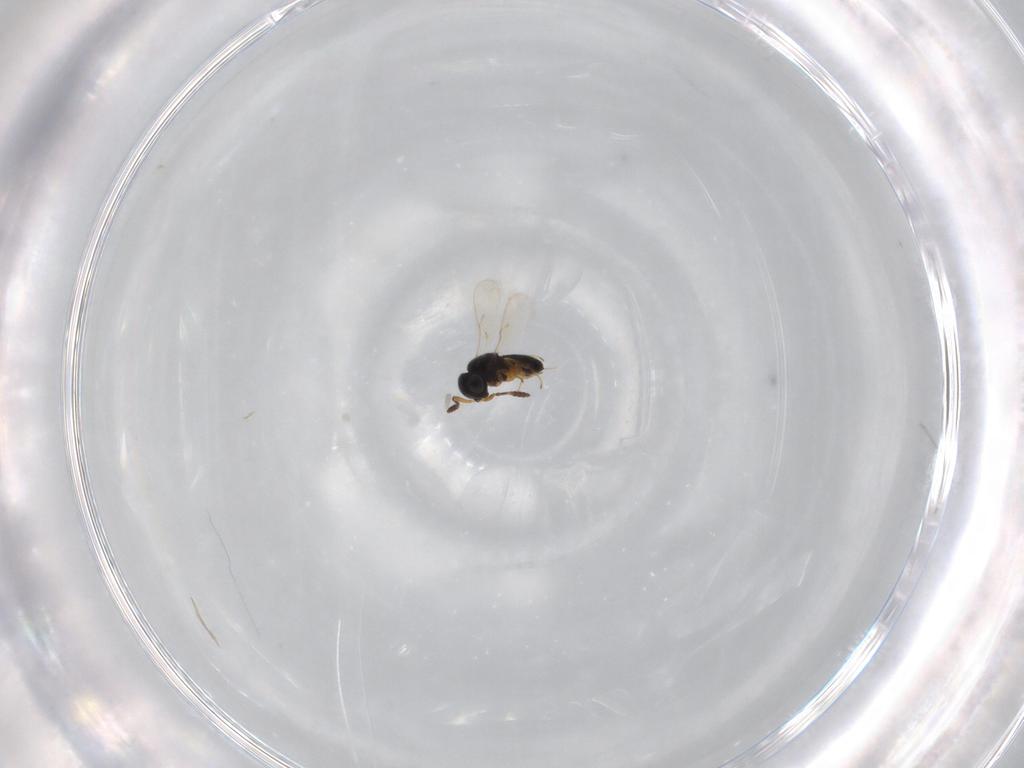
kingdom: Animalia
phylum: Arthropoda
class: Insecta
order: Hymenoptera
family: Scelionidae
